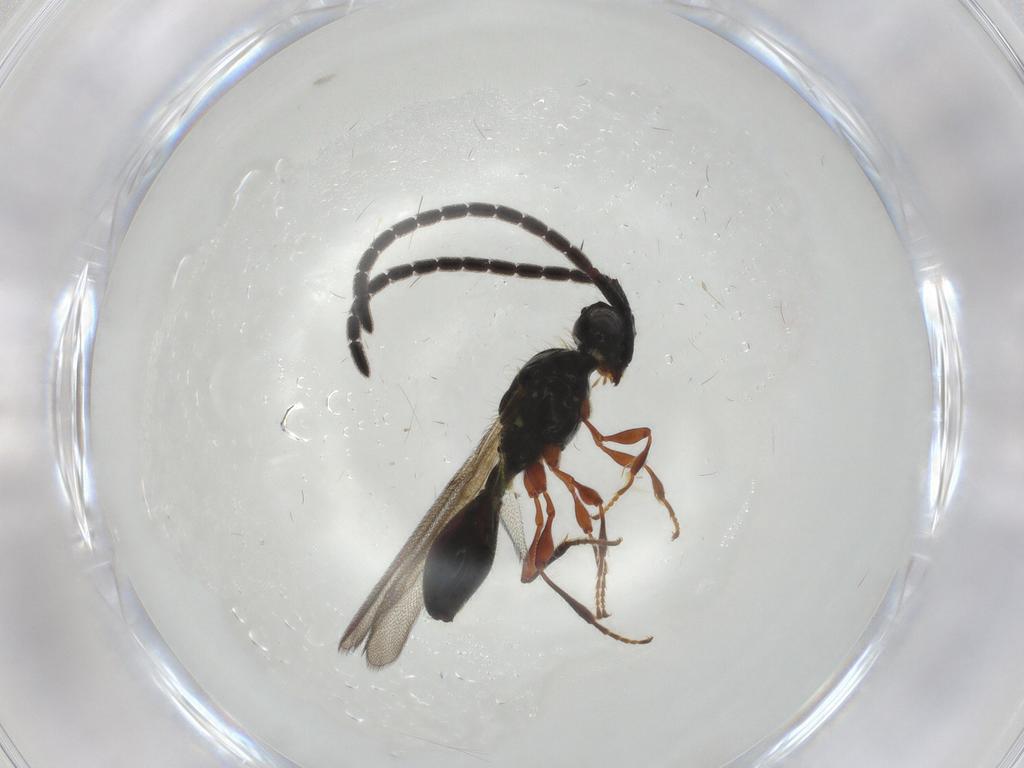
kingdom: Animalia
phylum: Arthropoda
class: Insecta
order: Hymenoptera
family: Diapriidae
